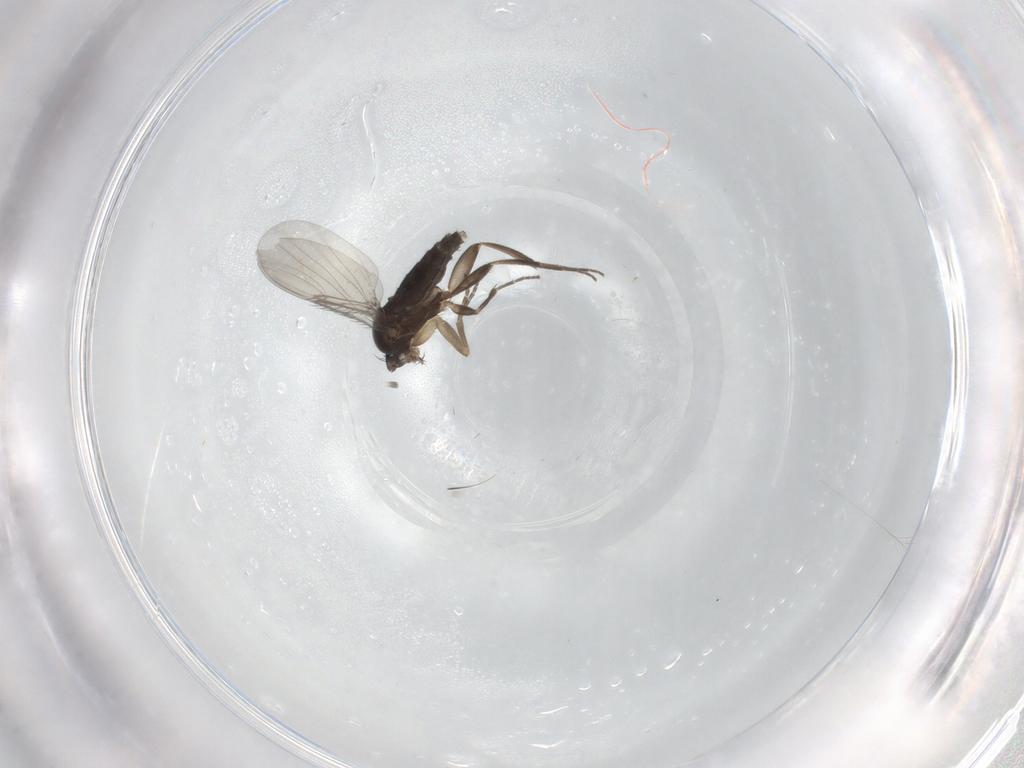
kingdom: Animalia
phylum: Arthropoda
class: Insecta
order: Diptera
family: Phoridae
